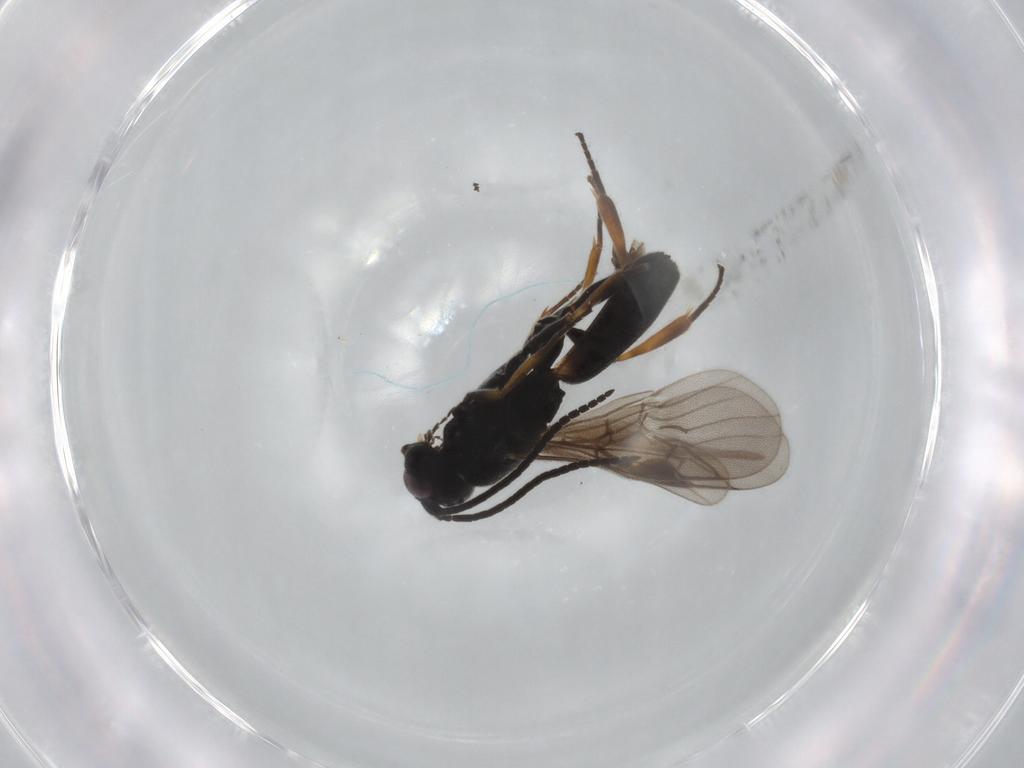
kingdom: Animalia
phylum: Arthropoda
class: Insecta
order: Hymenoptera
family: Braconidae
